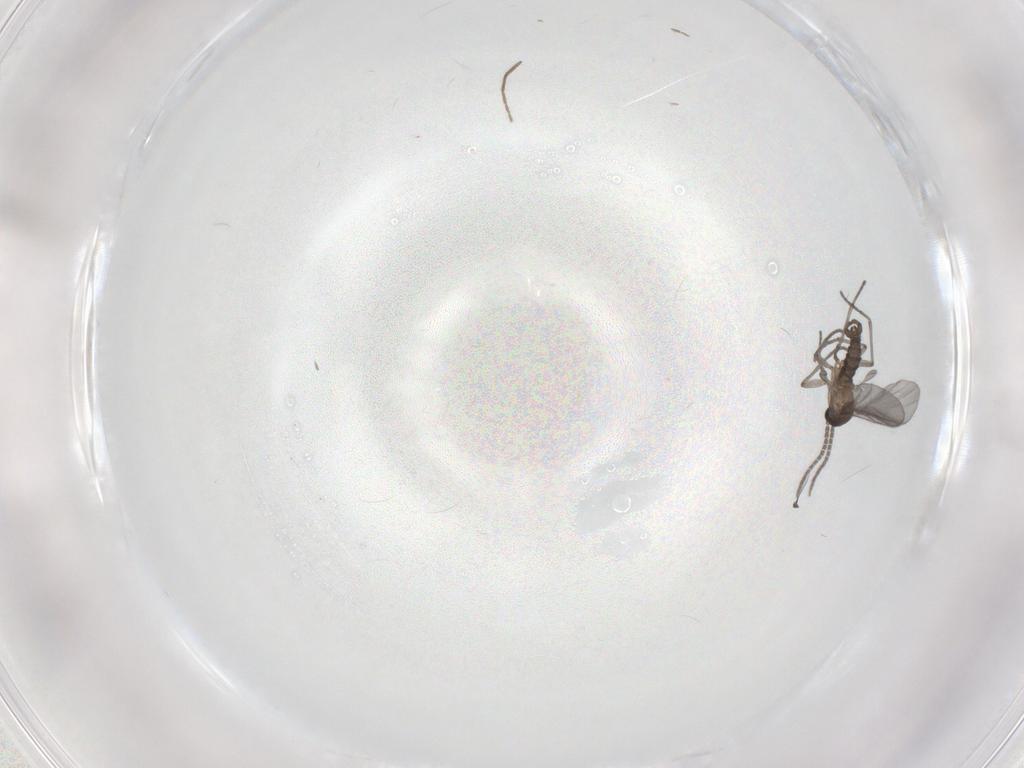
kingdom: Animalia
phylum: Arthropoda
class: Insecta
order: Diptera
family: Sciaridae
